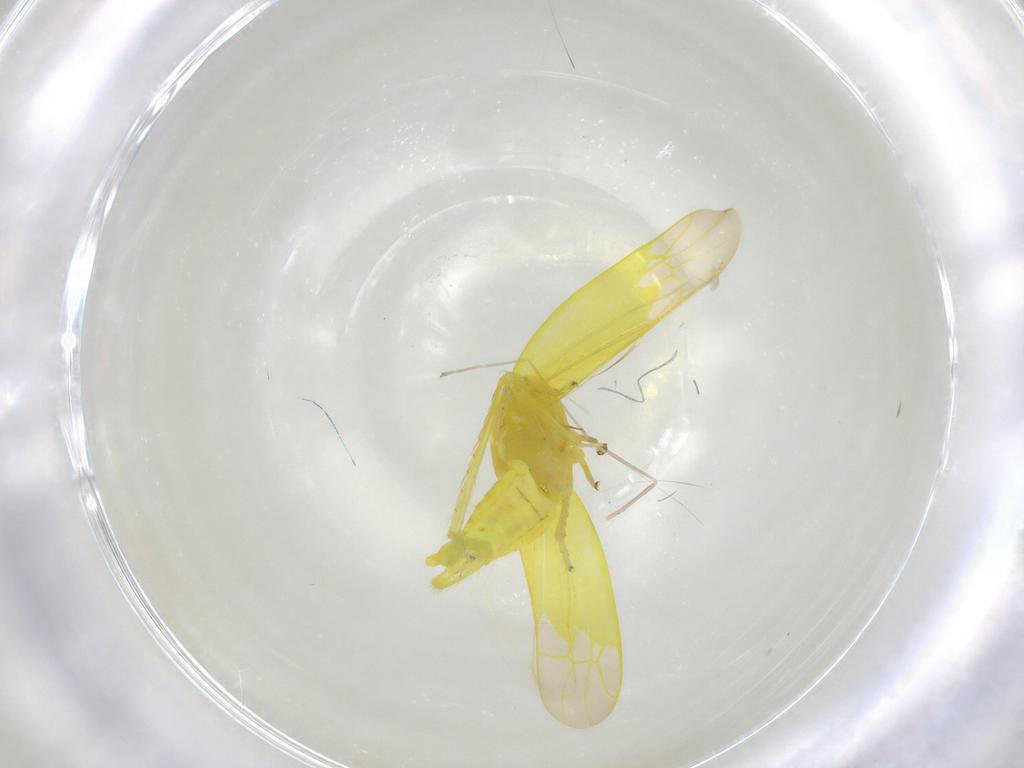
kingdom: Animalia
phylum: Arthropoda
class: Insecta
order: Hemiptera
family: Cicadellidae
